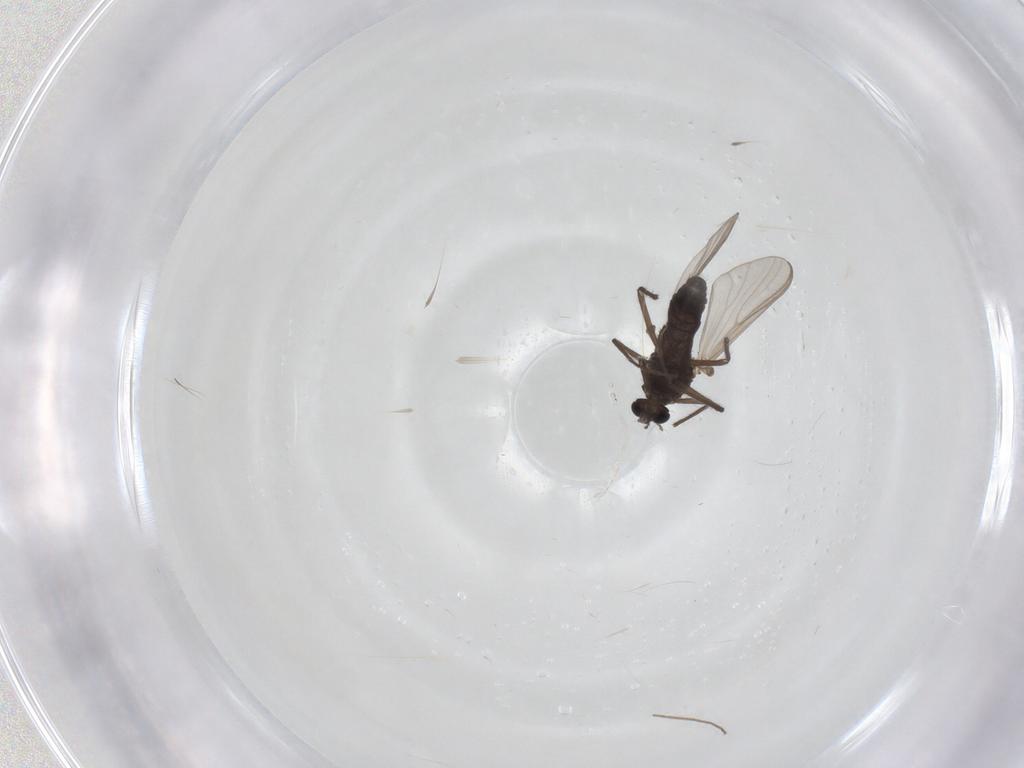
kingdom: Animalia
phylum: Arthropoda
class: Insecta
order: Diptera
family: Chironomidae
